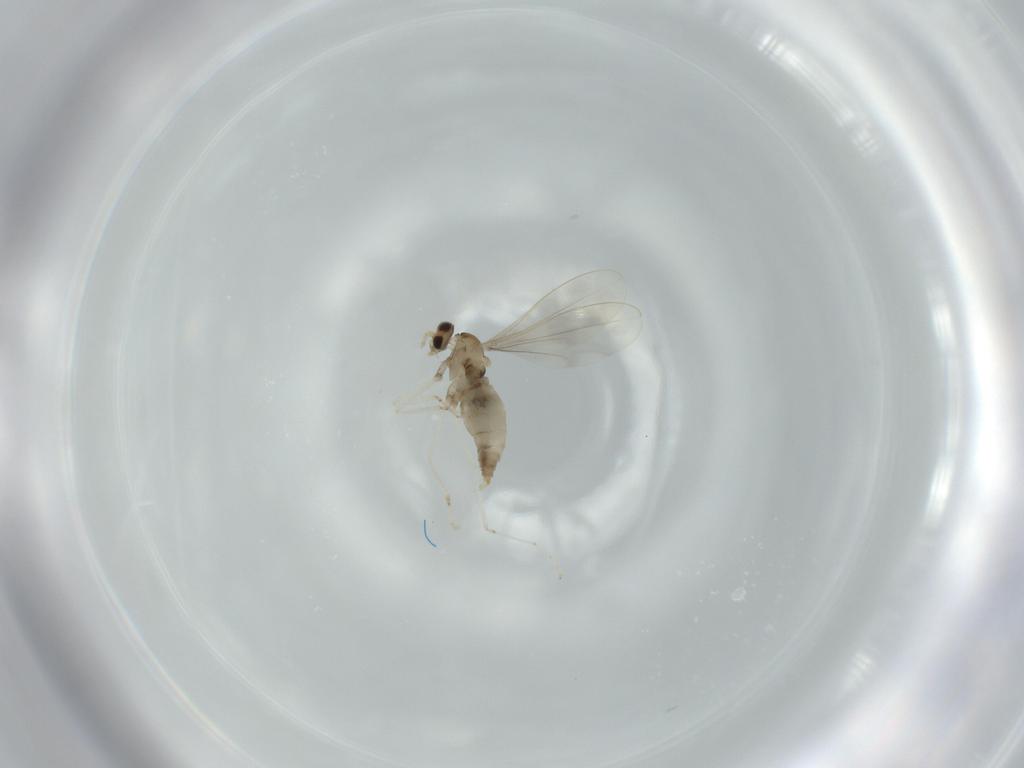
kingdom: Animalia
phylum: Arthropoda
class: Insecta
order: Diptera
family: Cecidomyiidae
